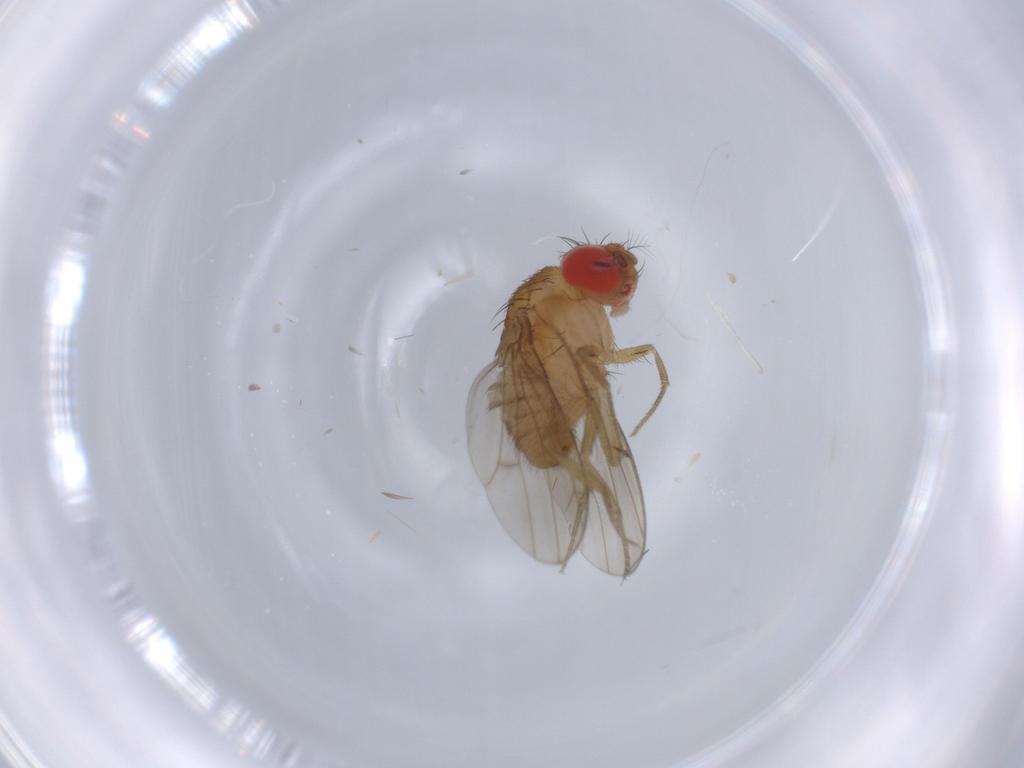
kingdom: Animalia
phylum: Arthropoda
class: Insecta
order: Diptera
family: Drosophilidae
